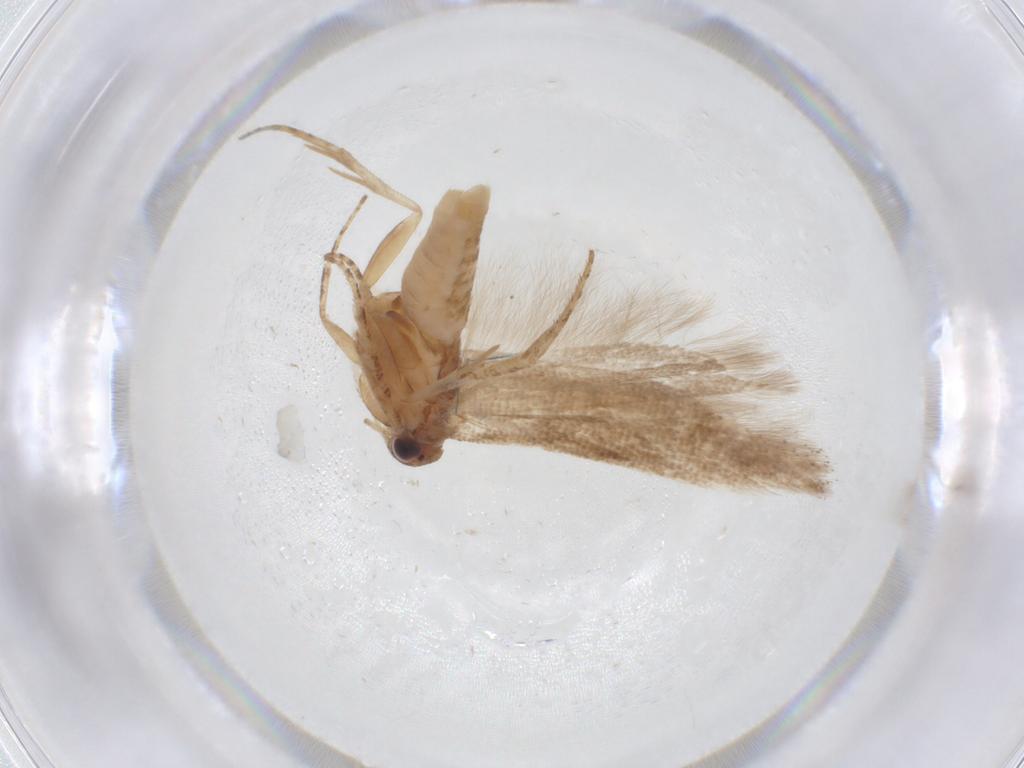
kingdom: Animalia
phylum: Arthropoda
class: Insecta
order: Lepidoptera
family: Gelechiidae
